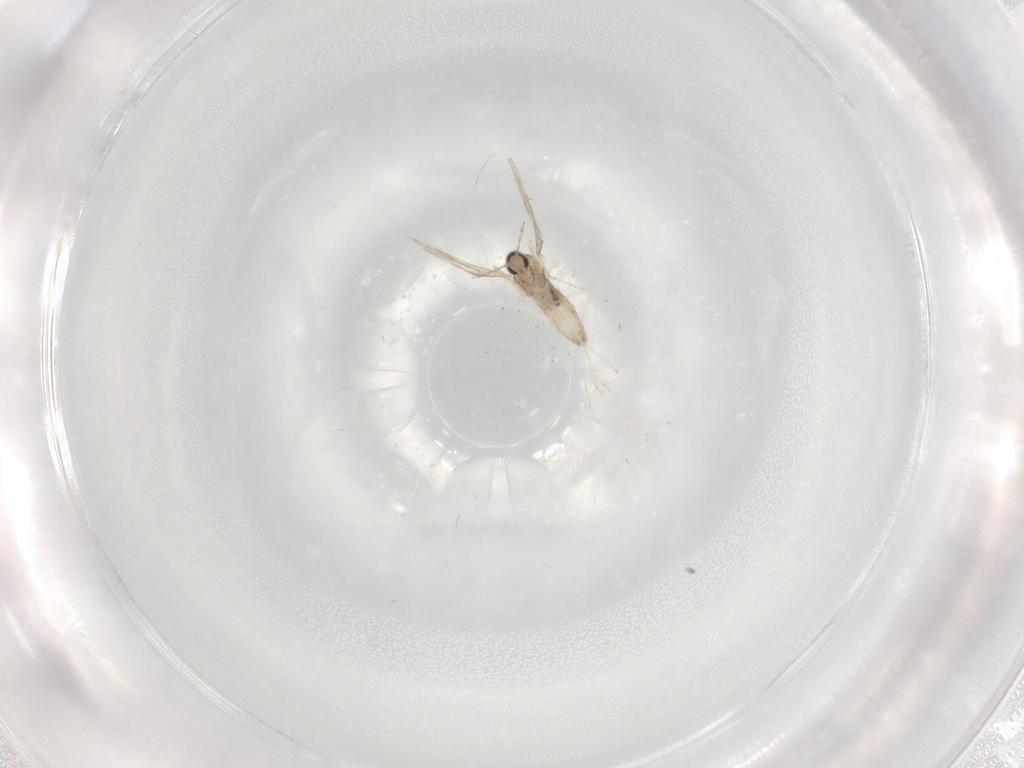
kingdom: Animalia
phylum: Arthropoda
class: Insecta
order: Diptera
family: Cecidomyiidae
